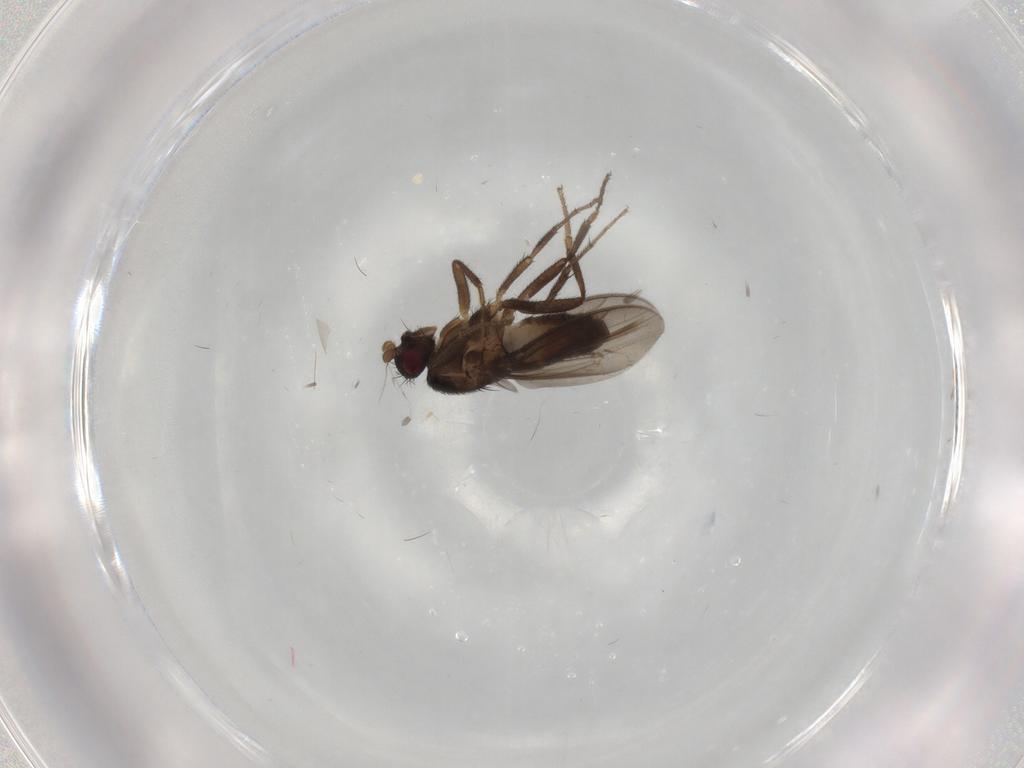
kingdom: Animalia
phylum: Arthropoda
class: Insecta
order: Diptera
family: Sphaeroceridae
